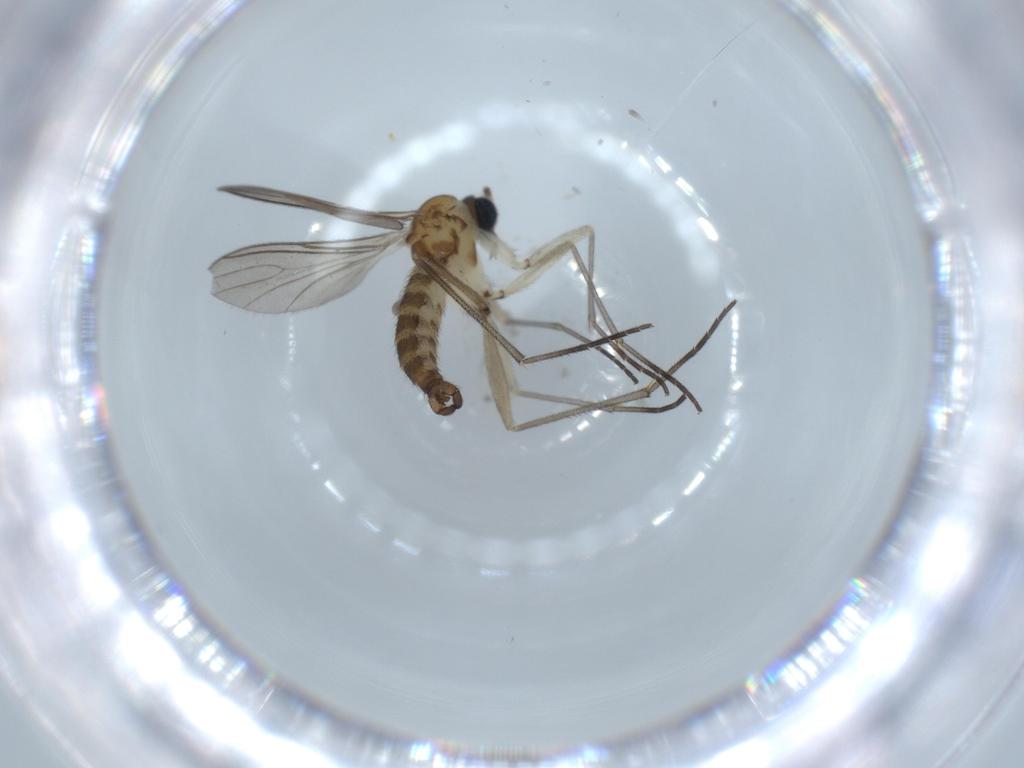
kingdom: Animalia
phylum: Arthropoda
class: Insecta
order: Diptera
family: Sciaridae
